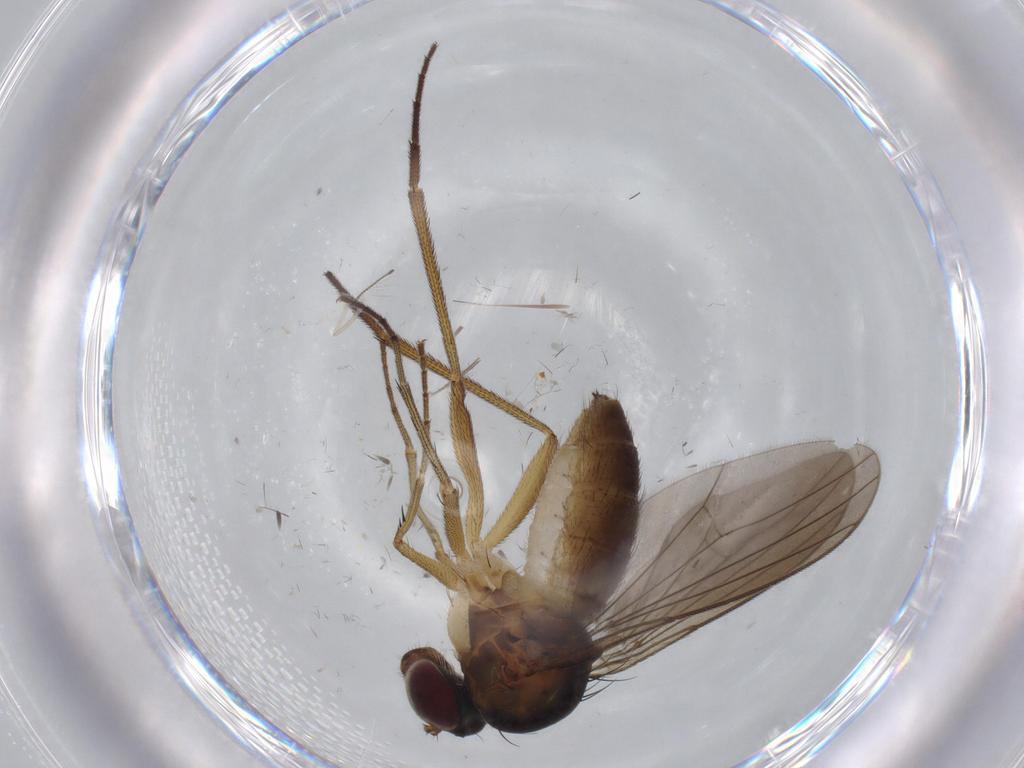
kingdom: Animalia
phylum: Arthropoda
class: Insecta
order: Diptera
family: Dolichopodidae
